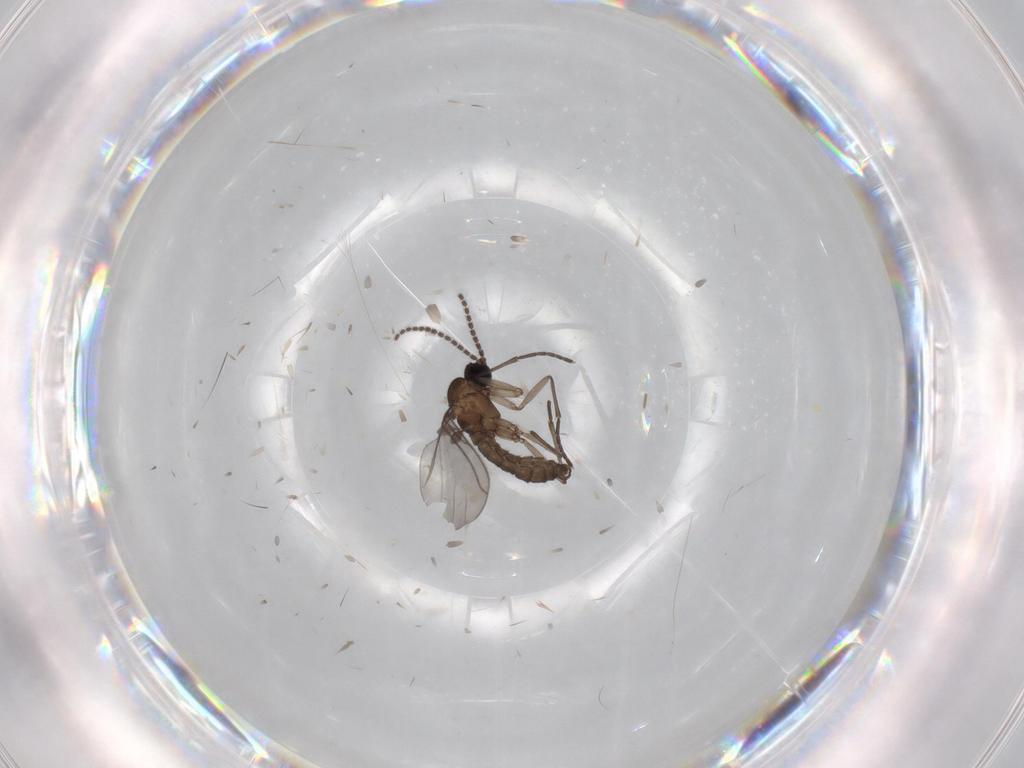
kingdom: Animalia
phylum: Arthropoda
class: Insecta
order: Diptera
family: Cecidomyiidae
